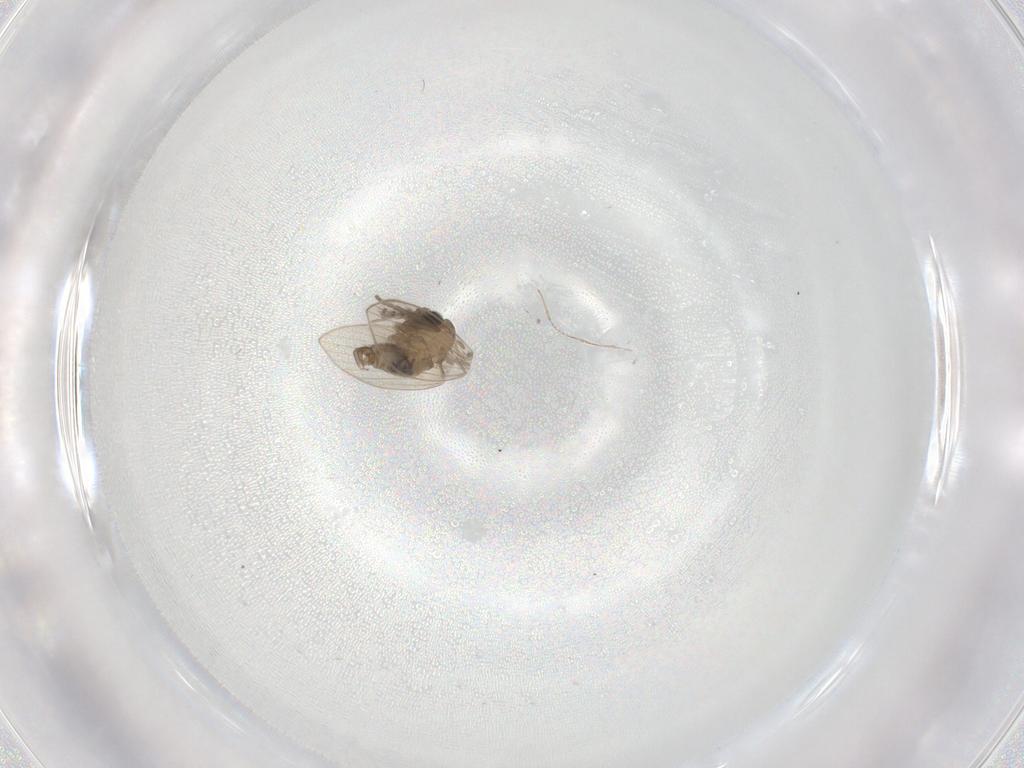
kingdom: Animalia
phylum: Arthropoda
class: Insecta
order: Diptera
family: Psychodidae
